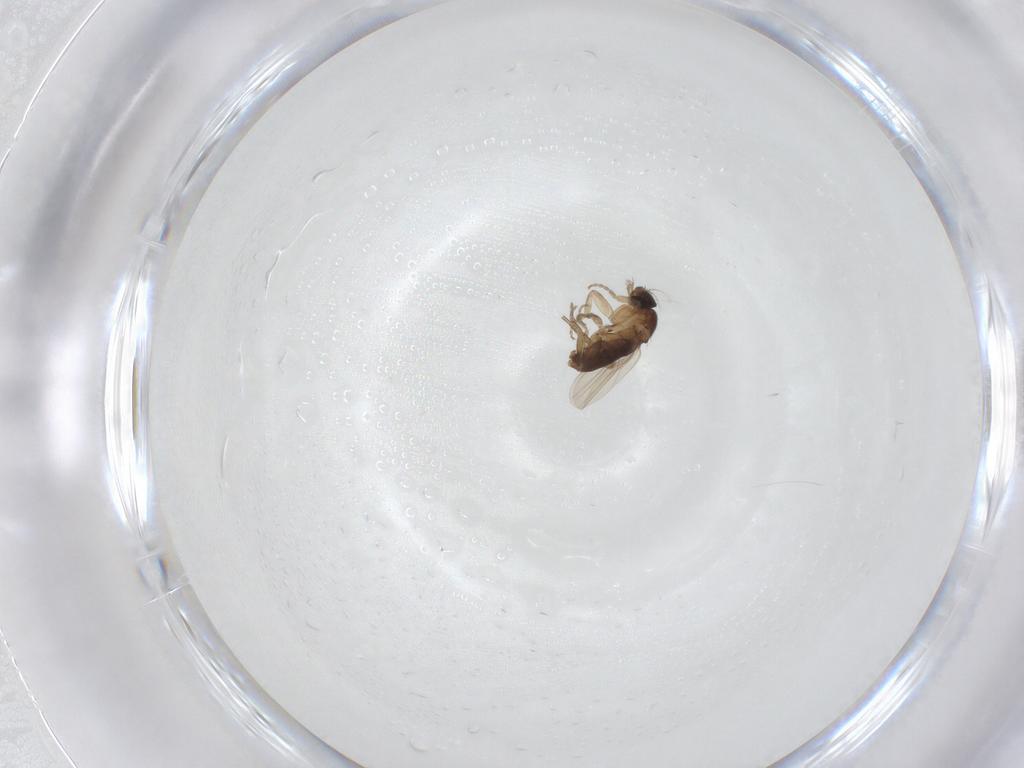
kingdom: Animalia
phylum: Arthropoda
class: Insecta
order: Diptera
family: Phoridae
